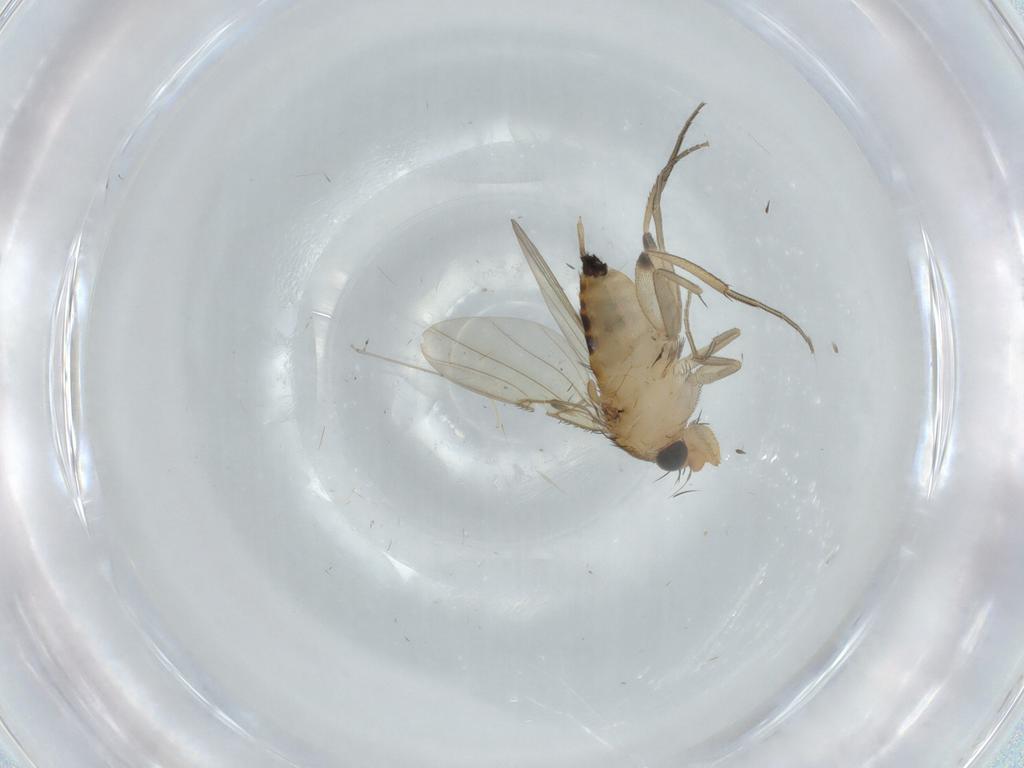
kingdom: Animalia
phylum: Arthropoda
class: Insecta
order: Diptera
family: Phoridae
